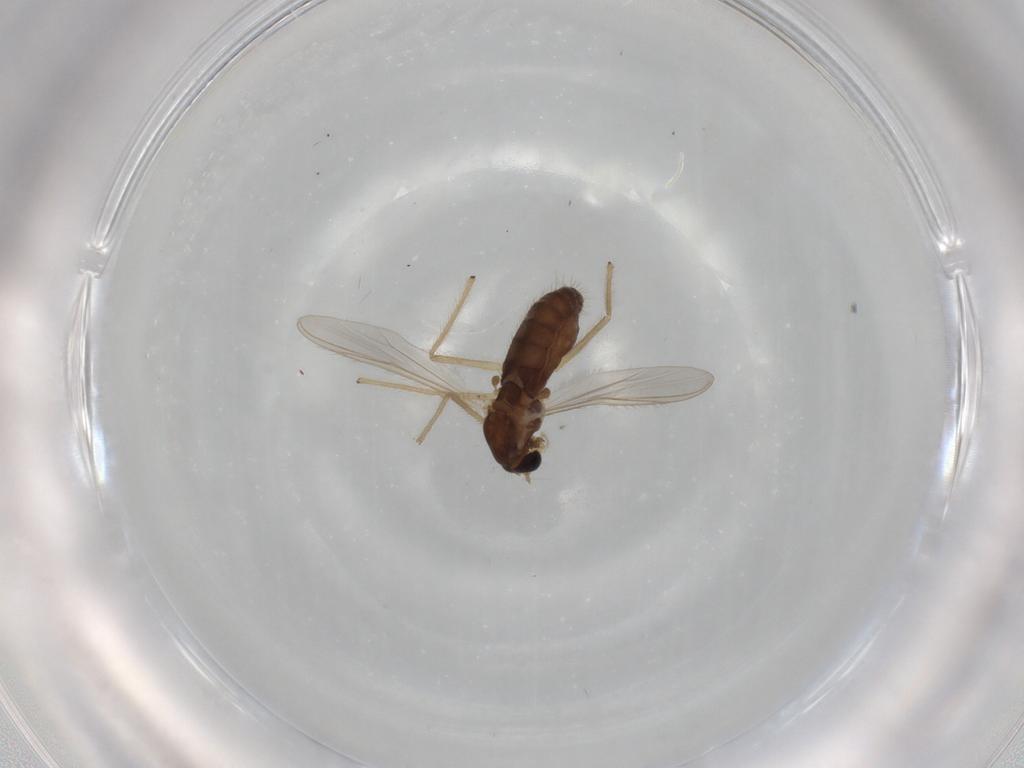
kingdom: Animalia
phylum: Arthropoda
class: Insecta
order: Diptera
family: Chironomidae
